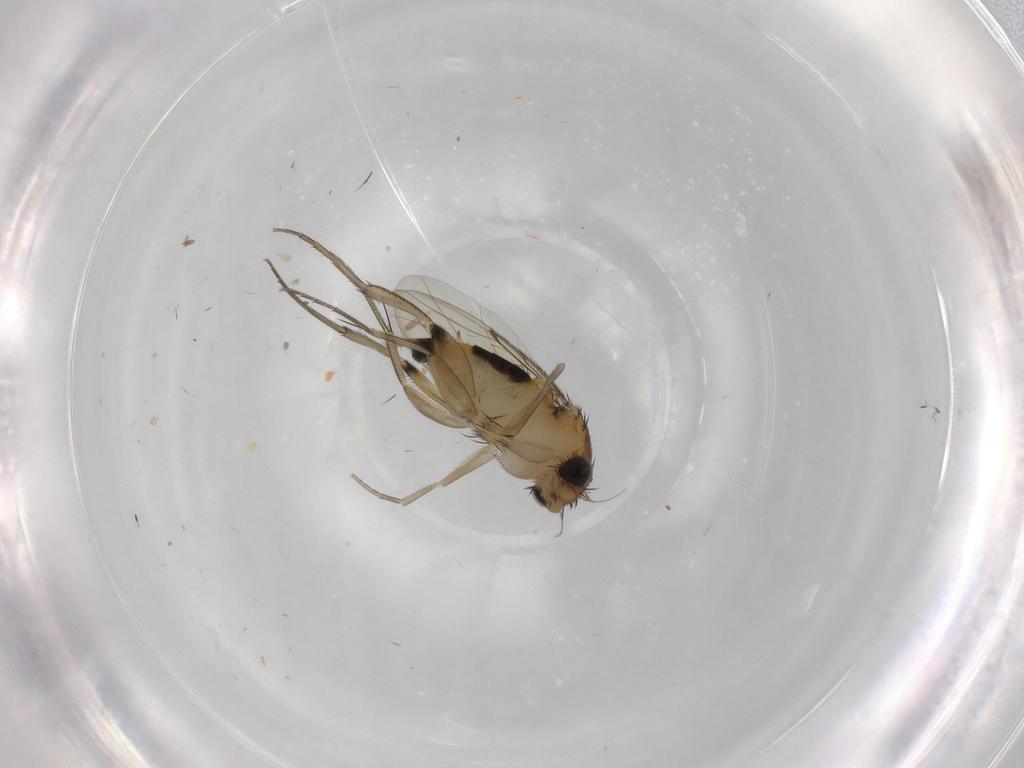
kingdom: Animalia
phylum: Arthropoda
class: Insecta
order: Diptera
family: Phoridae
